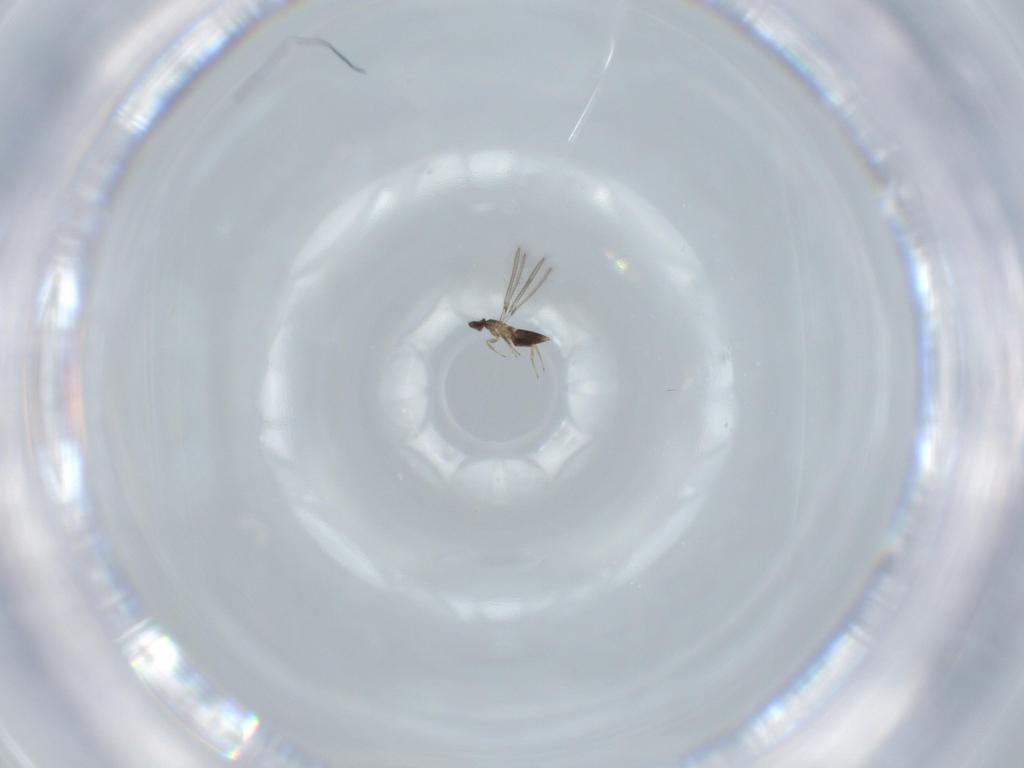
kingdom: Animalia
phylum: Arthropoda
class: Insecta
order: Hymenoptera
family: Mymaridae
